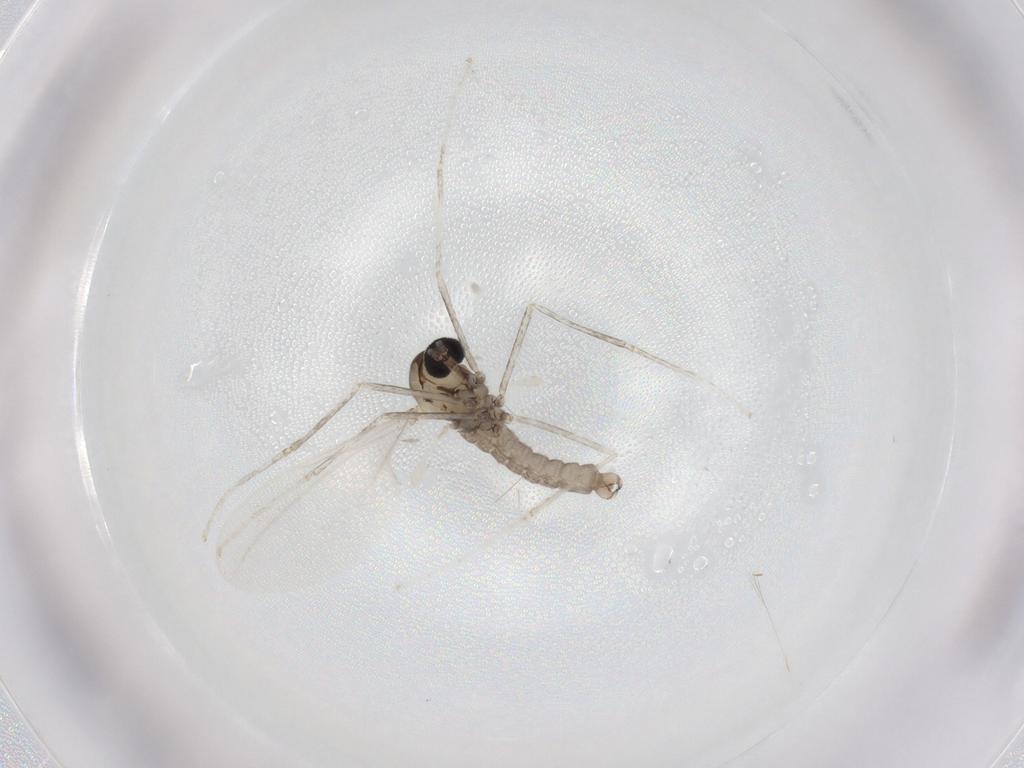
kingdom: Animalia
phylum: Arthropoda
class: Insecta
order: Diptera
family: Cecidomyiidae
